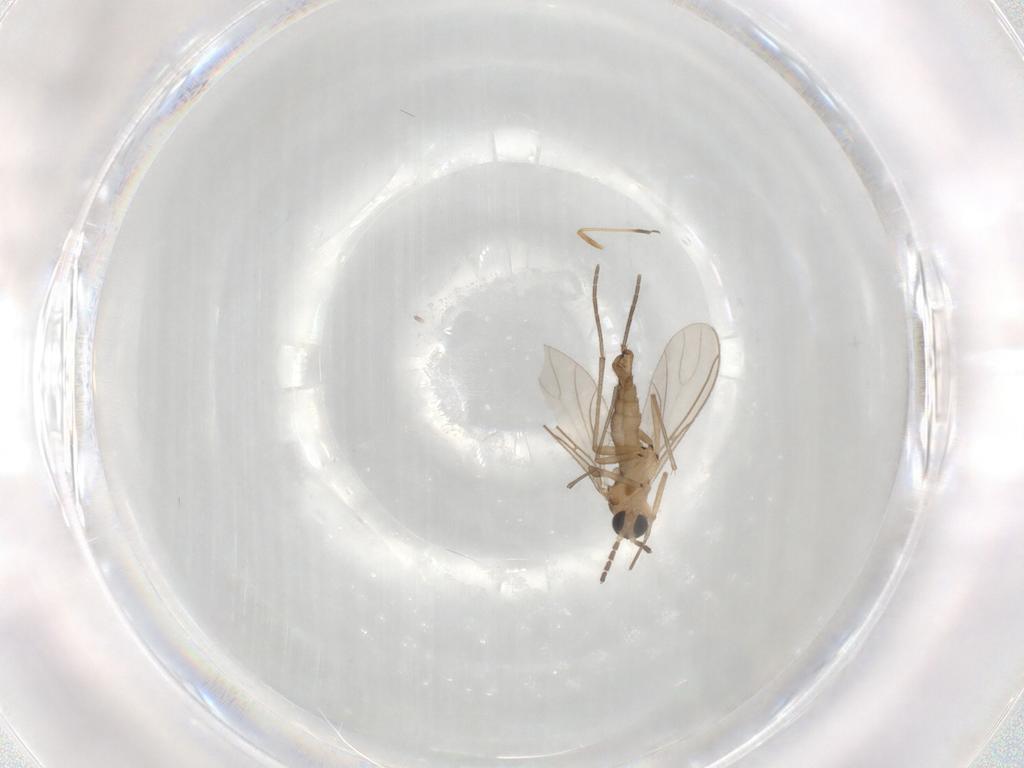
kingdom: Animalia
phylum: Arthropoda
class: Insecta
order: Diptera
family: Sciaridae
